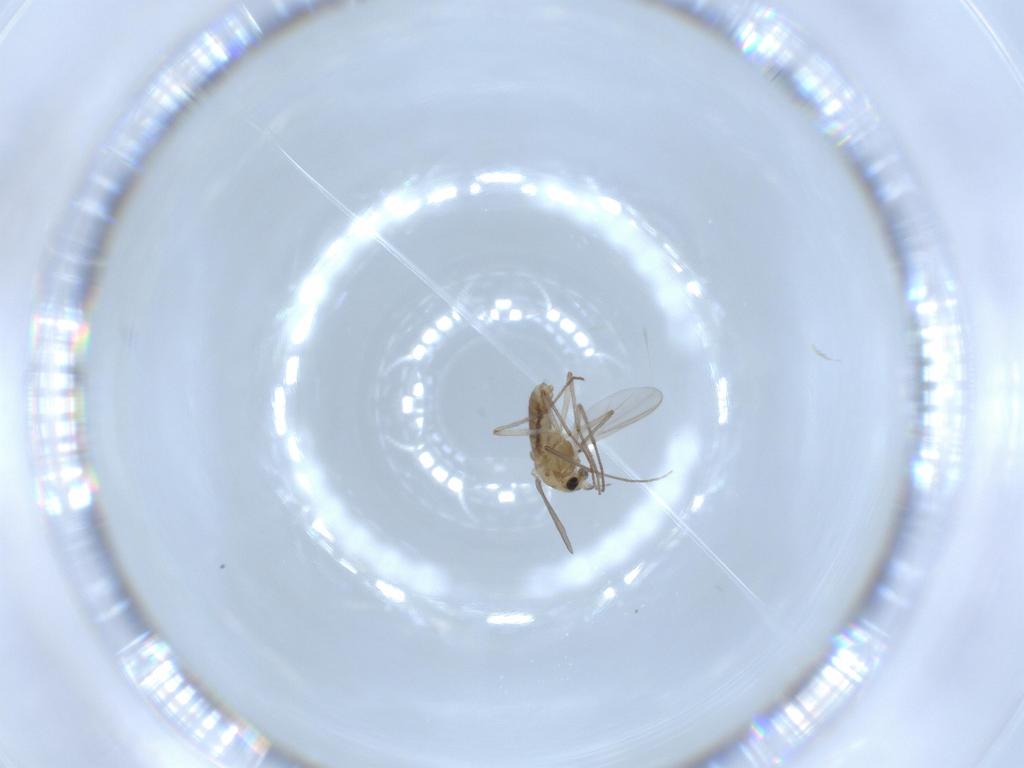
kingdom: Animalia
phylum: Arthropoda
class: Insecta
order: Diptera
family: Chironomidae
